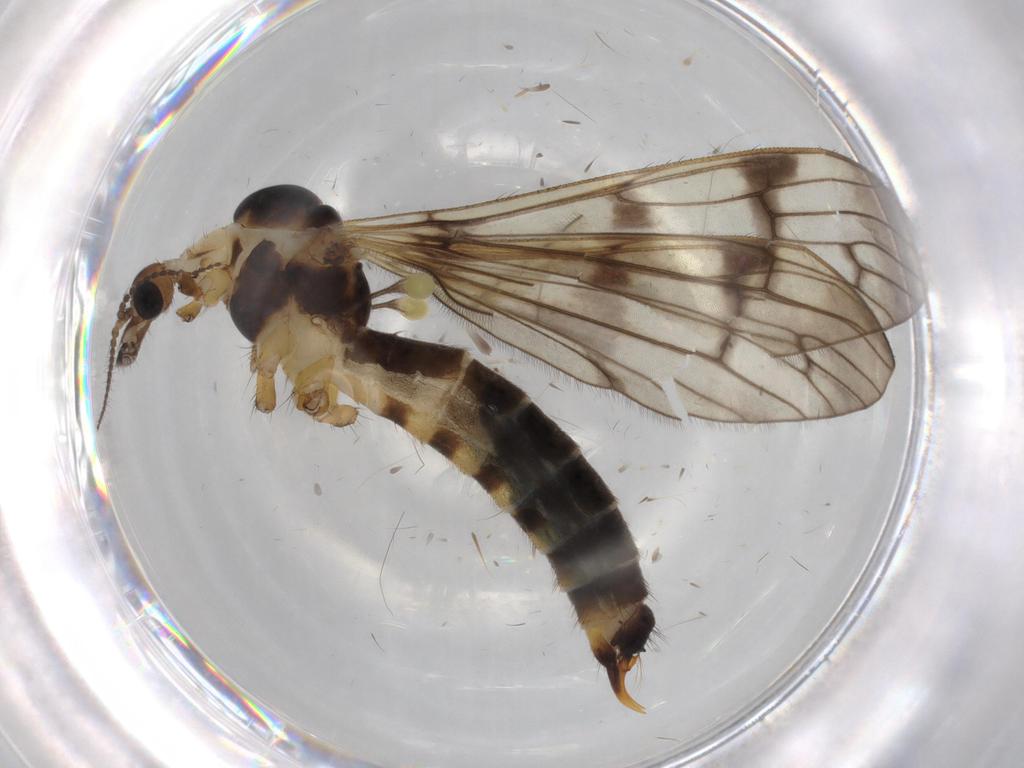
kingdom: Animalia
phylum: Arthropoda
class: Insecta
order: Diptera
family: Limoniidae
